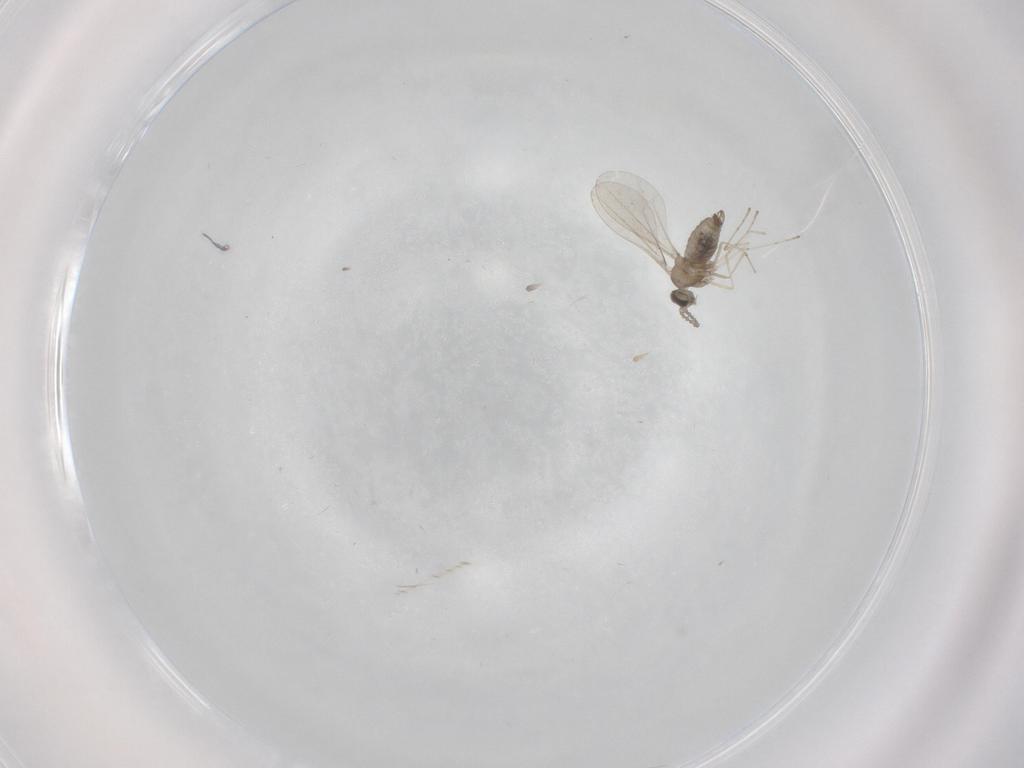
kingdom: Animalia
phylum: Arthropoda
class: Insecta
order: Diptera
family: Cecidomyiidae
